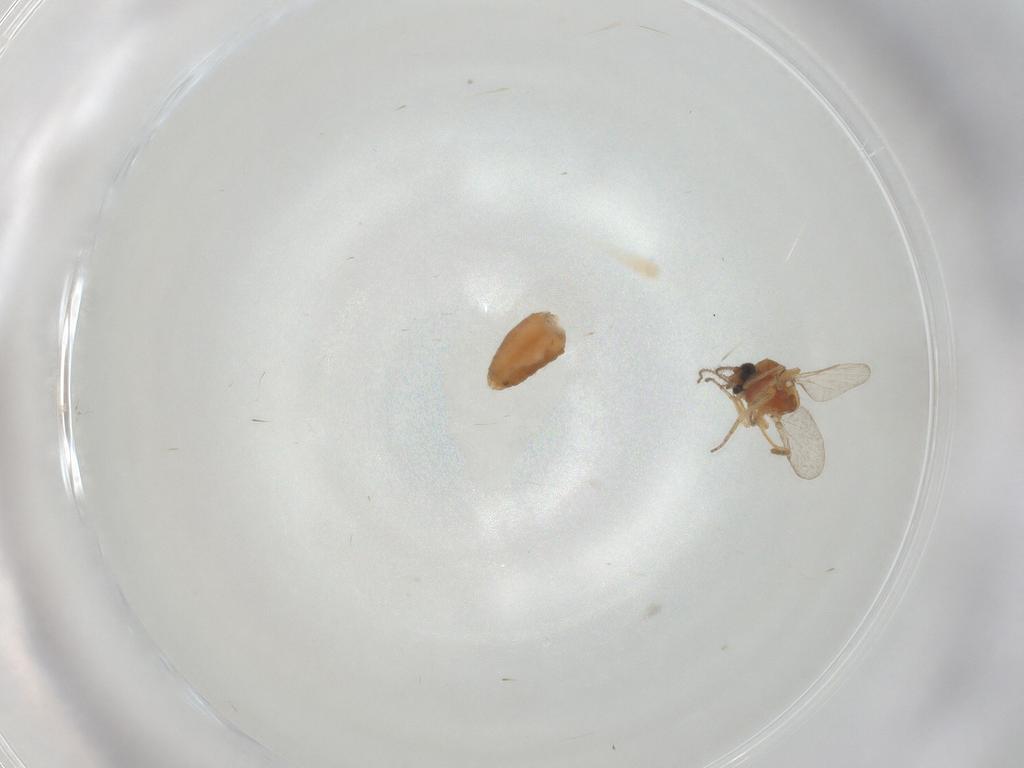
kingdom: Animalia
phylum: Arthropoda
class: Insecta
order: Diptera
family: Ceratopogonidae
